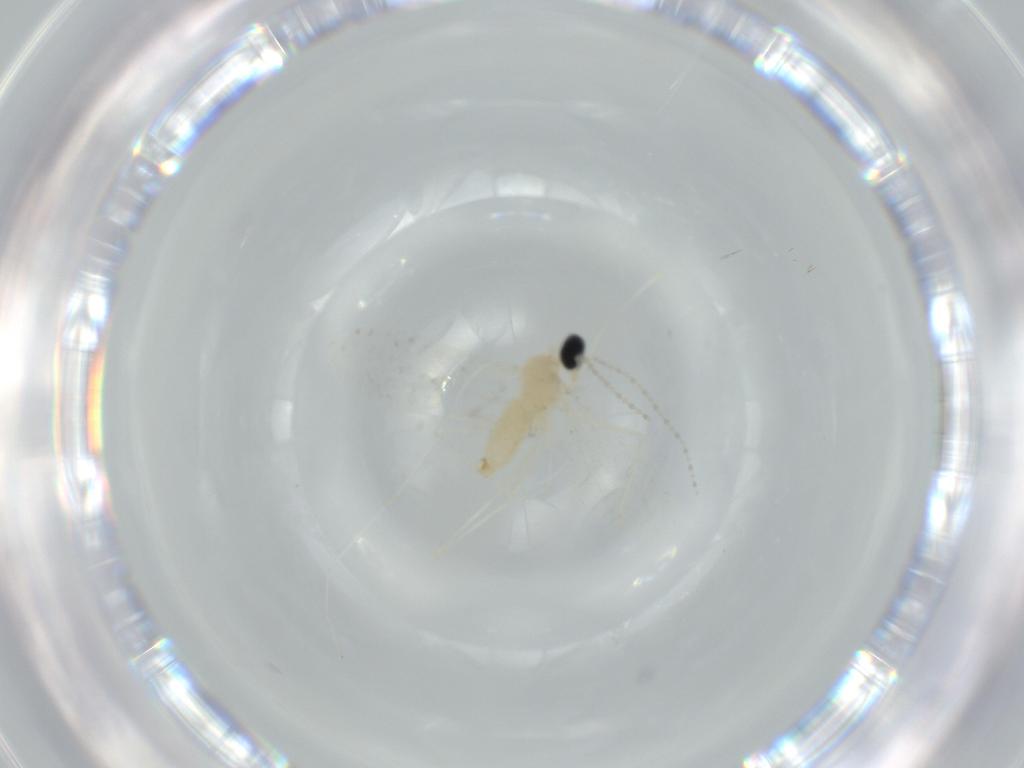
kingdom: Animalia
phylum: Arthropoda
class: Insecta
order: Diptera
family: Cecidomyiidae
